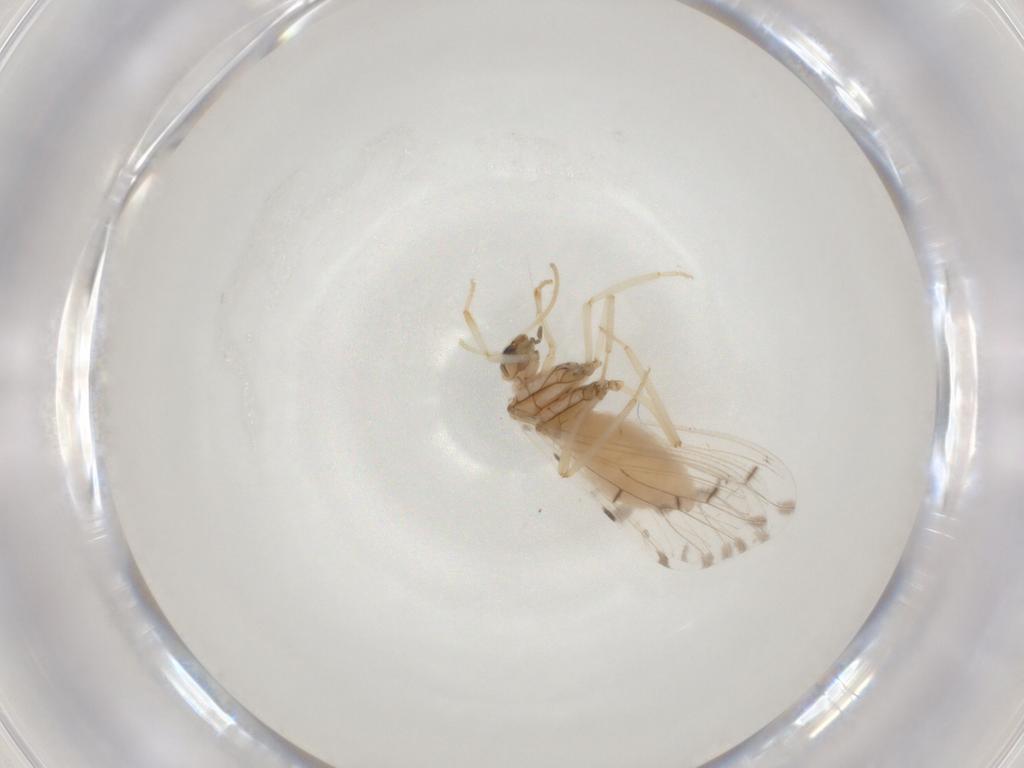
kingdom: Animalia
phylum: Arthropoda
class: Insecta
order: Neuroptera
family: Coniopterygidae
